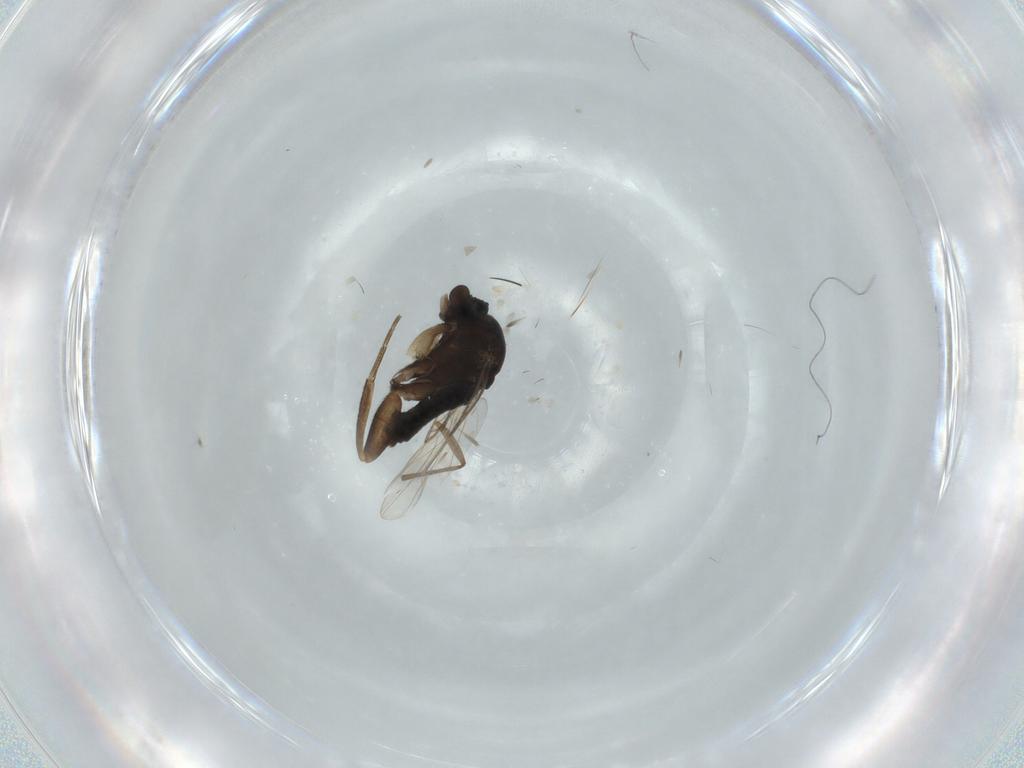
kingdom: Animalia
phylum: Arthropoda
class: Insecta
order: Diptera
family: Phoridae
